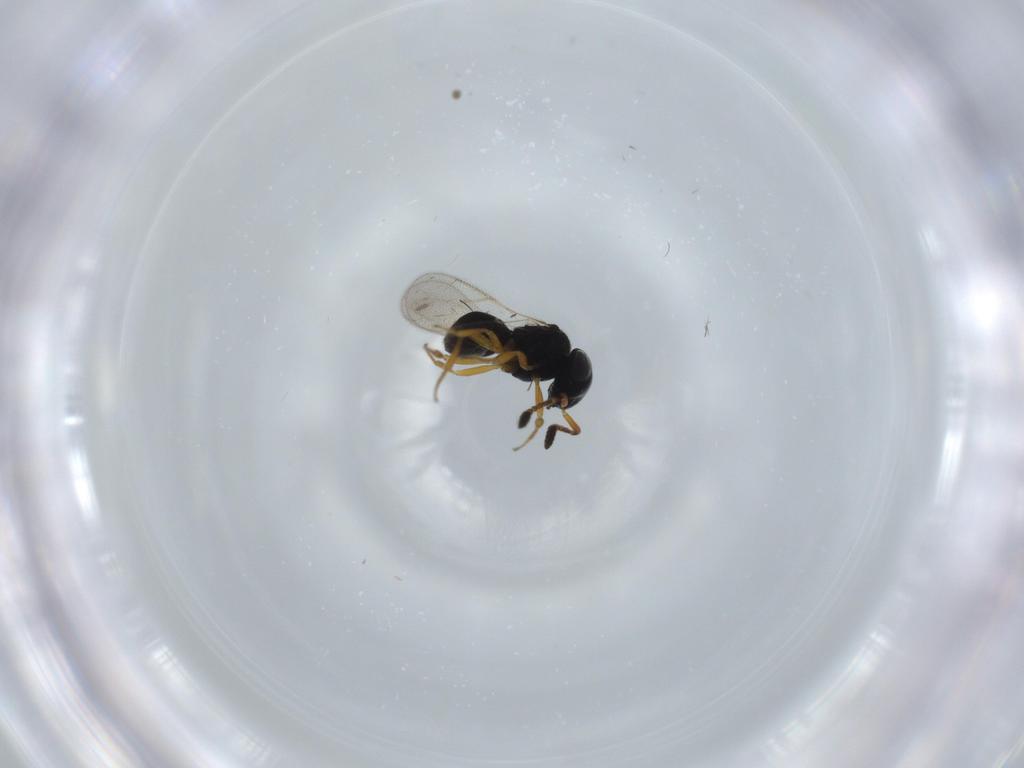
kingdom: Animalia
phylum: Arthropoda
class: Insecta
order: Hymenoptera
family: Scelionidae
